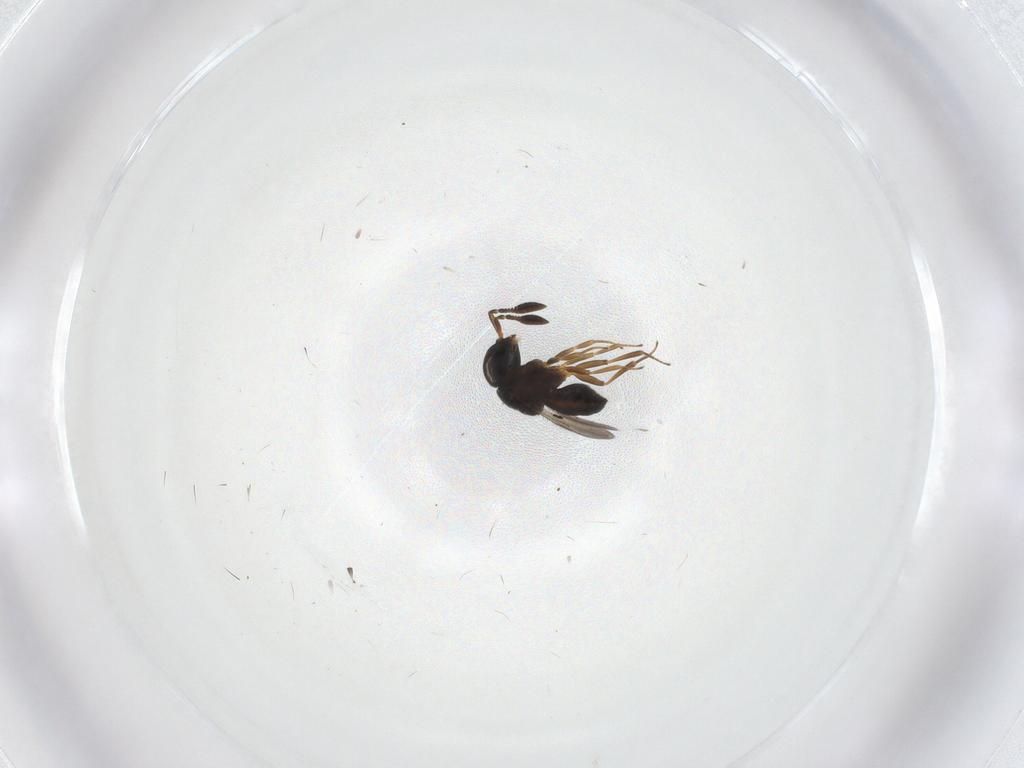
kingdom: Animalia
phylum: Arthropoda
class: Insecta
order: Hymenoptera
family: Scelionidae
